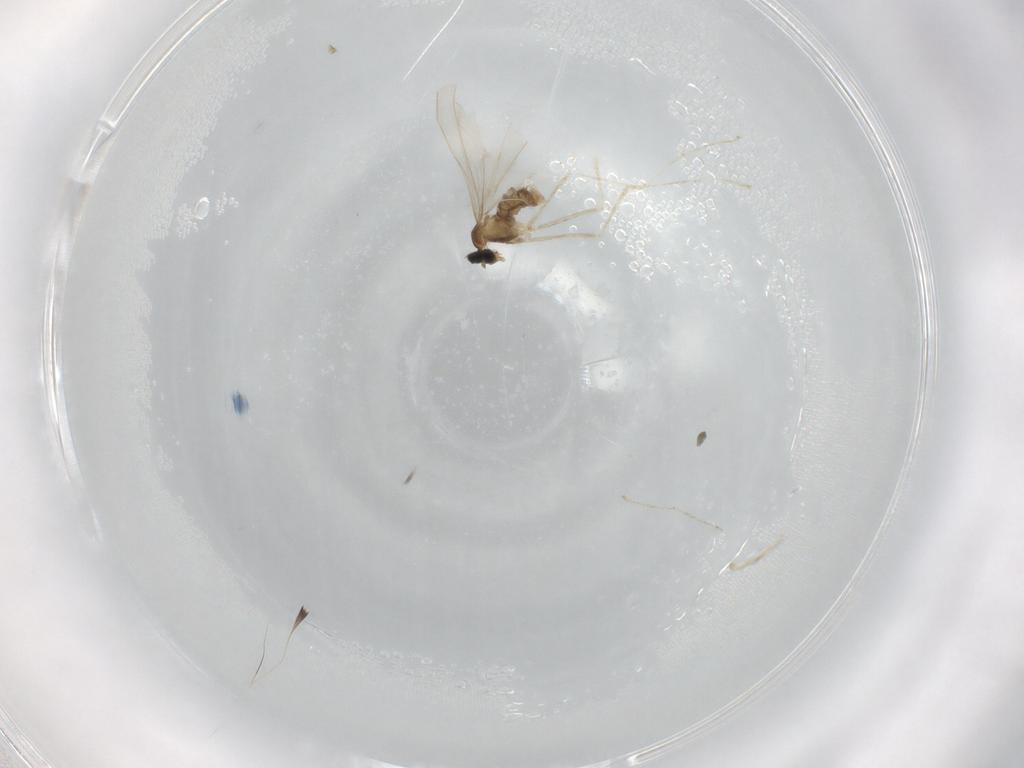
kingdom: Animalia
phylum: Arthropoda
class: Insecta
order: Diptera
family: Cecidomyiidae
